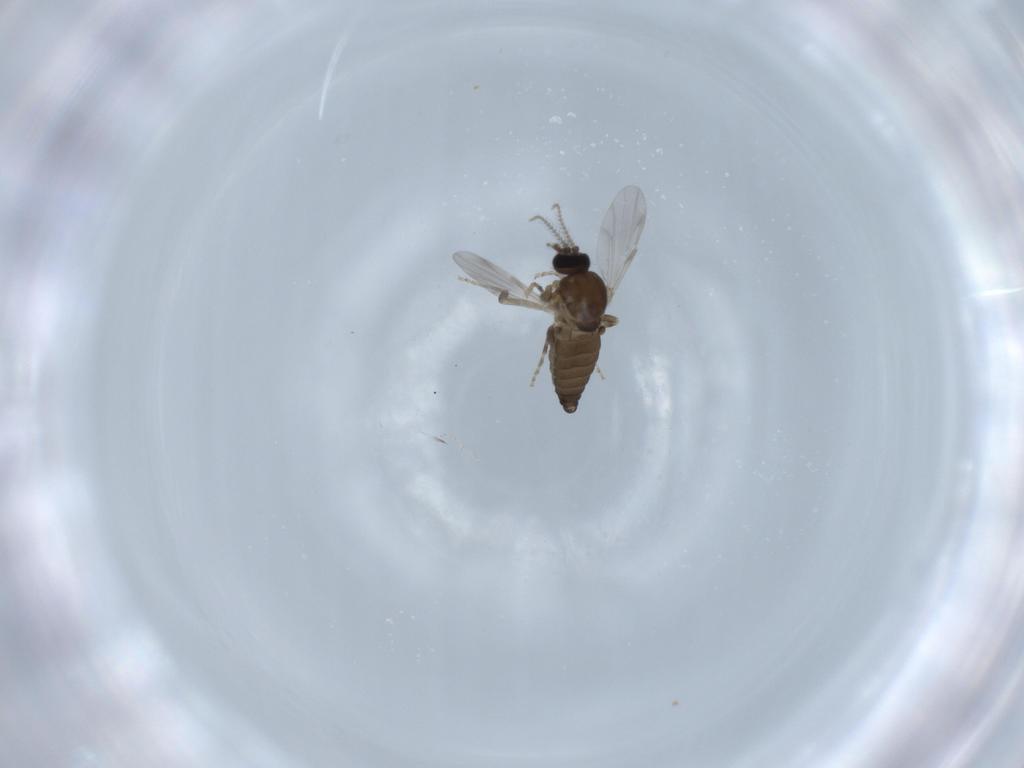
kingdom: Animalia
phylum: Arthropoda
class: Insecta
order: Diptera
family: Ceratopogonidae
